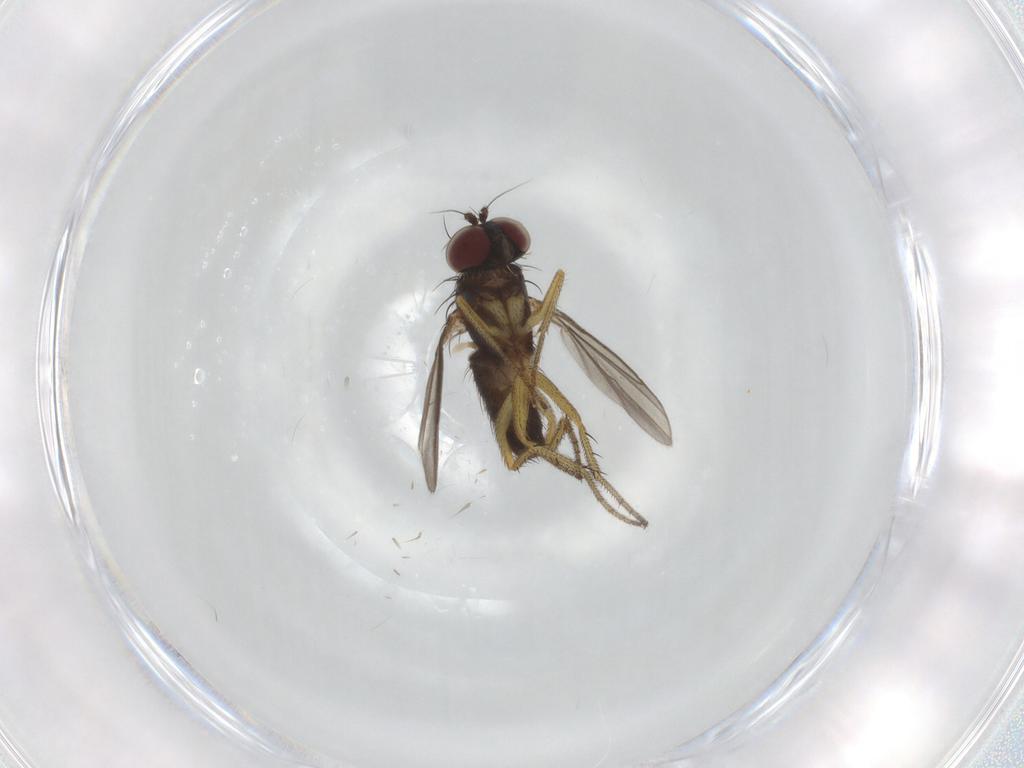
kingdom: Animalia
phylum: Arthropoda
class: Insecta
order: Diptera
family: Dolichopodidae
